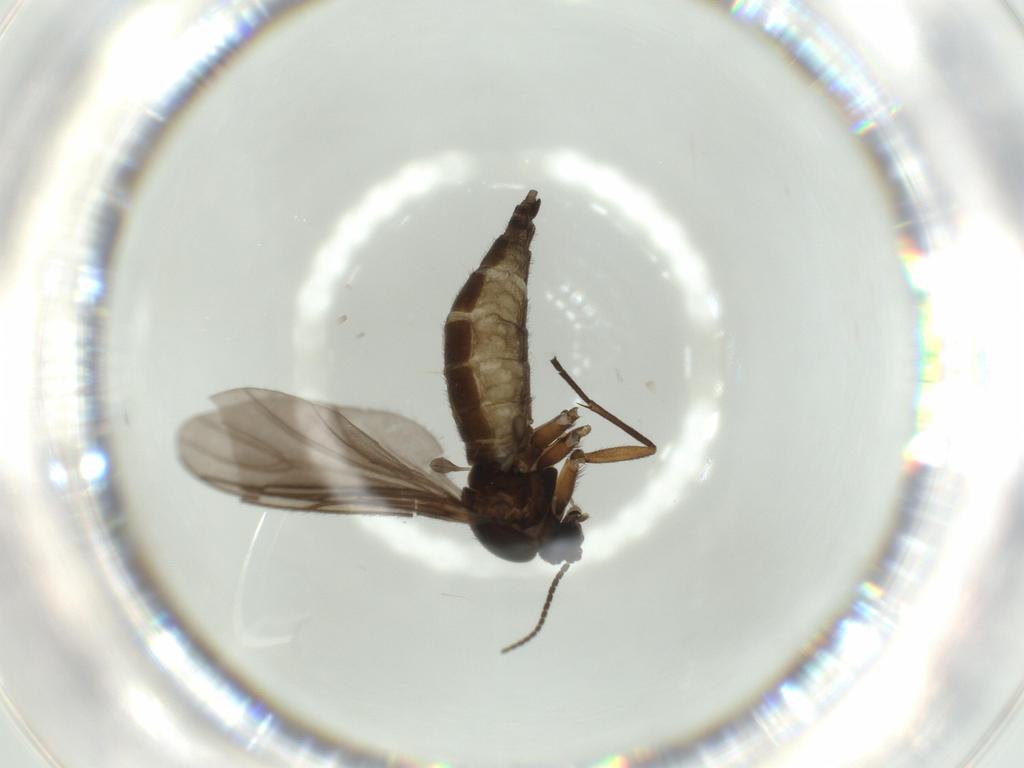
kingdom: Animalia
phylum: Arthropoda
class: Insecta
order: Diptera
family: Sciaridae
